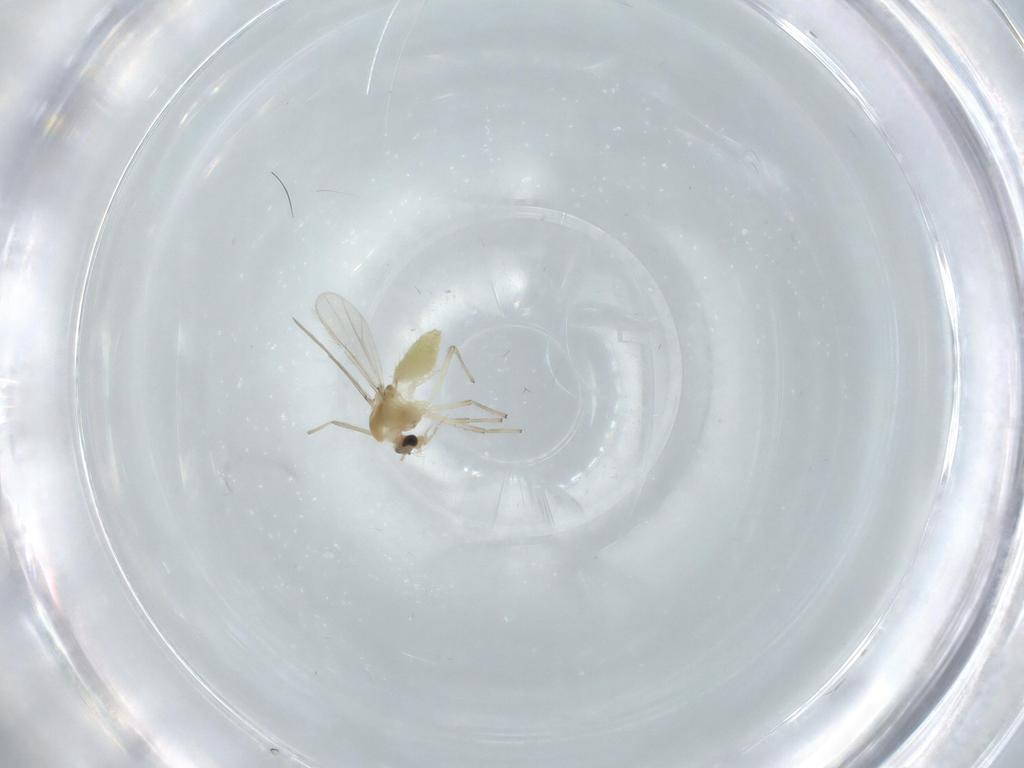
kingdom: Animalia
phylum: Arthropoda
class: Insecta
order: Diptera
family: Chironomidae
